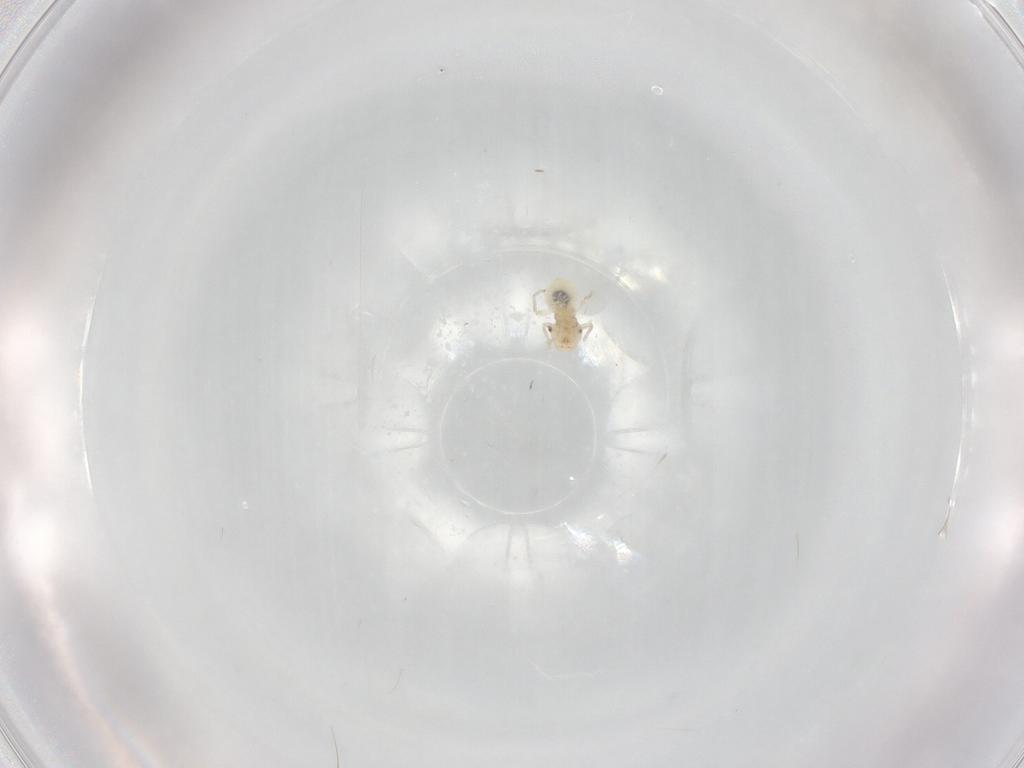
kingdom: Animalia
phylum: Arthropoda
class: Insecta
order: Psocodea
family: Caeciliusidae
